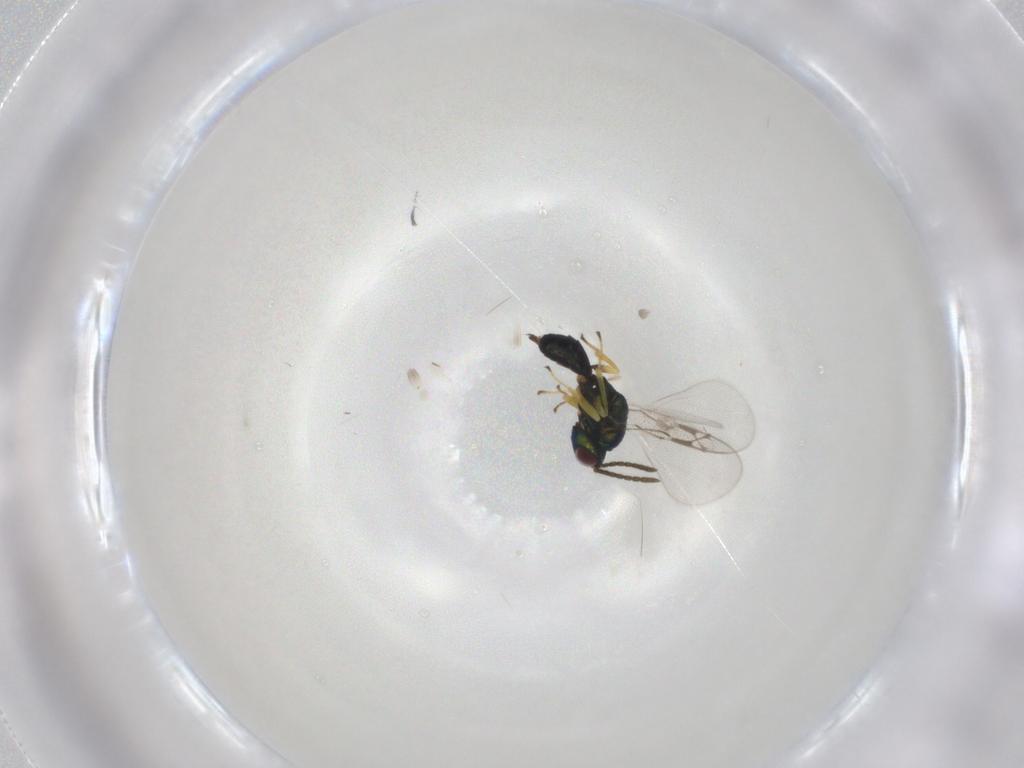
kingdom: Animalia
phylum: Arthropoda
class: Insecta
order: Hymenoptera
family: Pteromalidae
